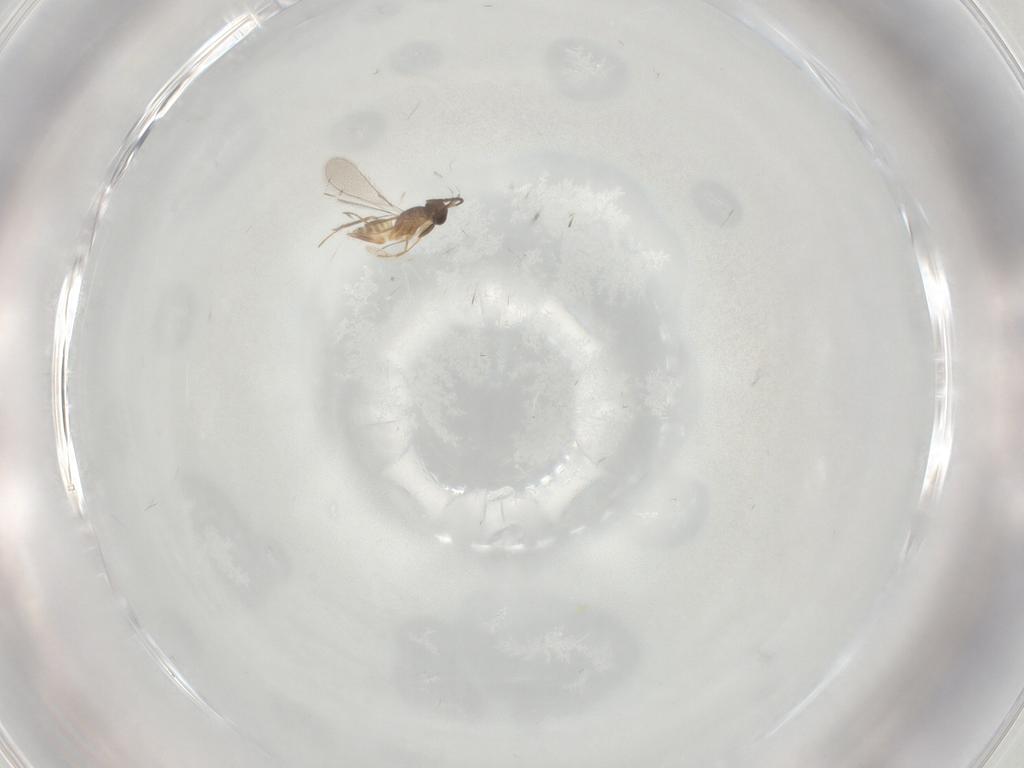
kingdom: Animalia
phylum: Arthropoda
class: Insecta
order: Hymenoptera
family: Mymaridae
